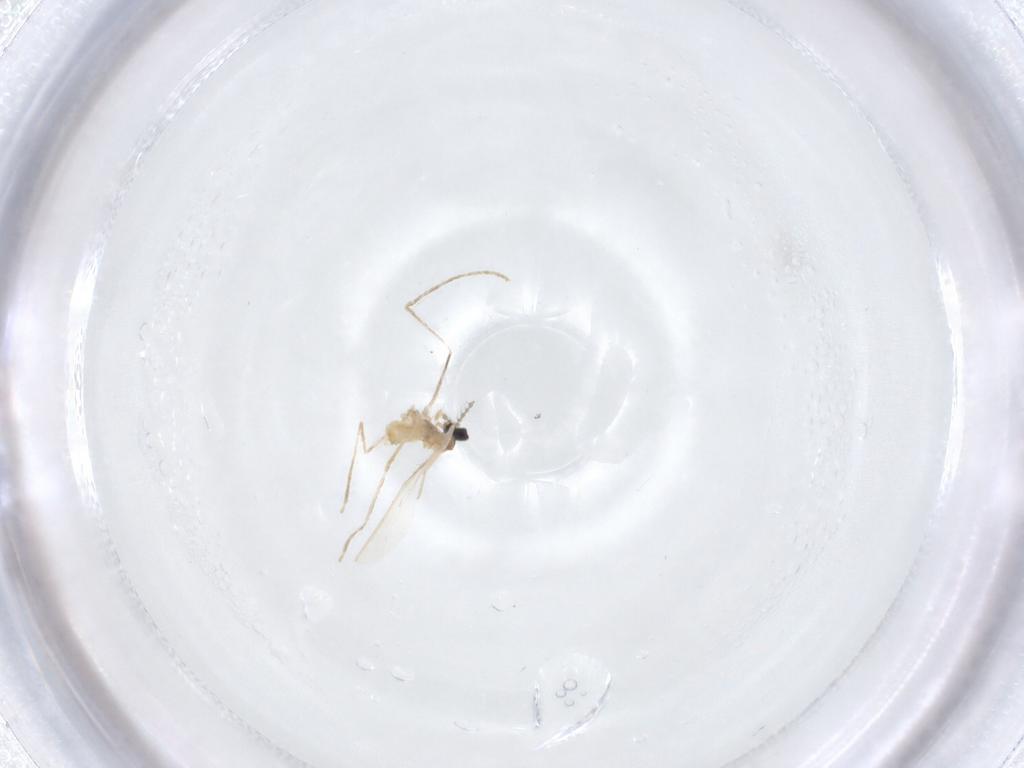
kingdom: Animalia
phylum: Arthropoda
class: Insecta
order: Diptera
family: Cecidomyiidae
